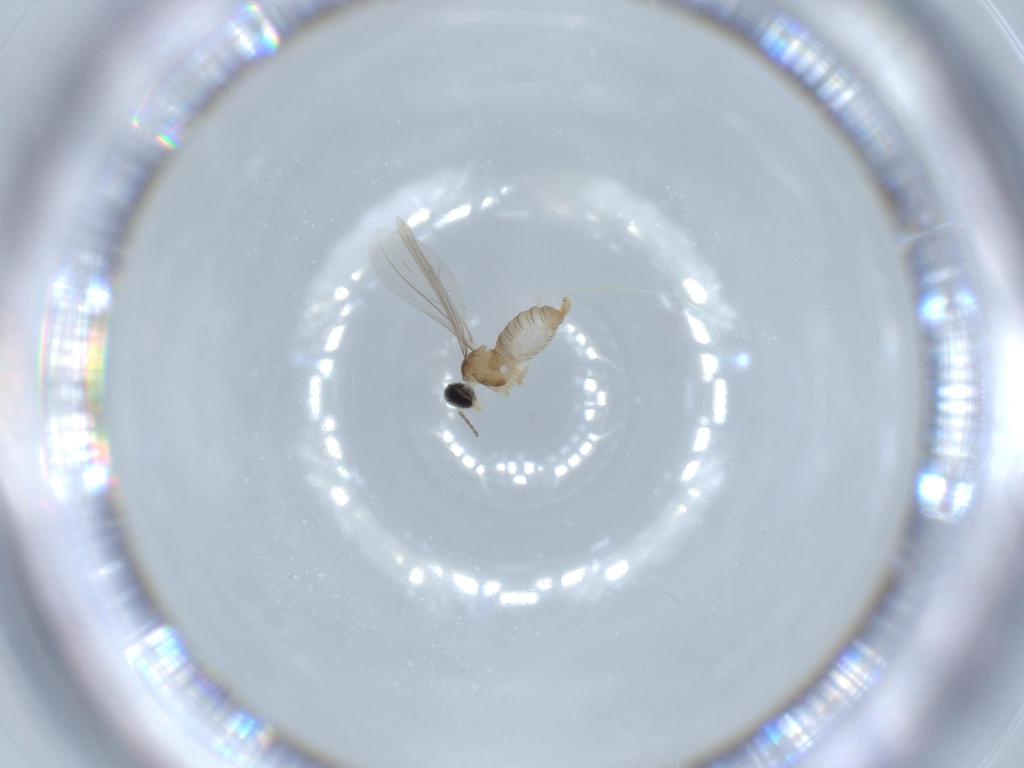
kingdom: Animalia
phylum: Arthropoda
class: Insecta
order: Diptera
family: Cecidomyiidae
